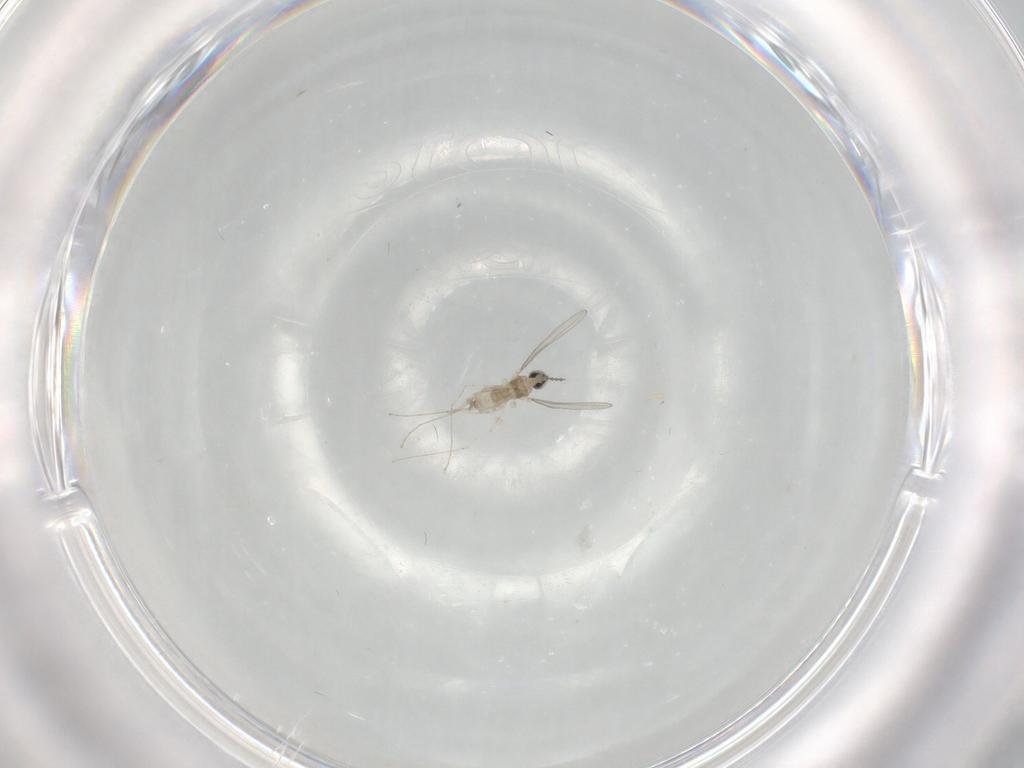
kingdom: Animalia
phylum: Arthropoda
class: Insecta
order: Diptera
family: Cecidomyiidae
